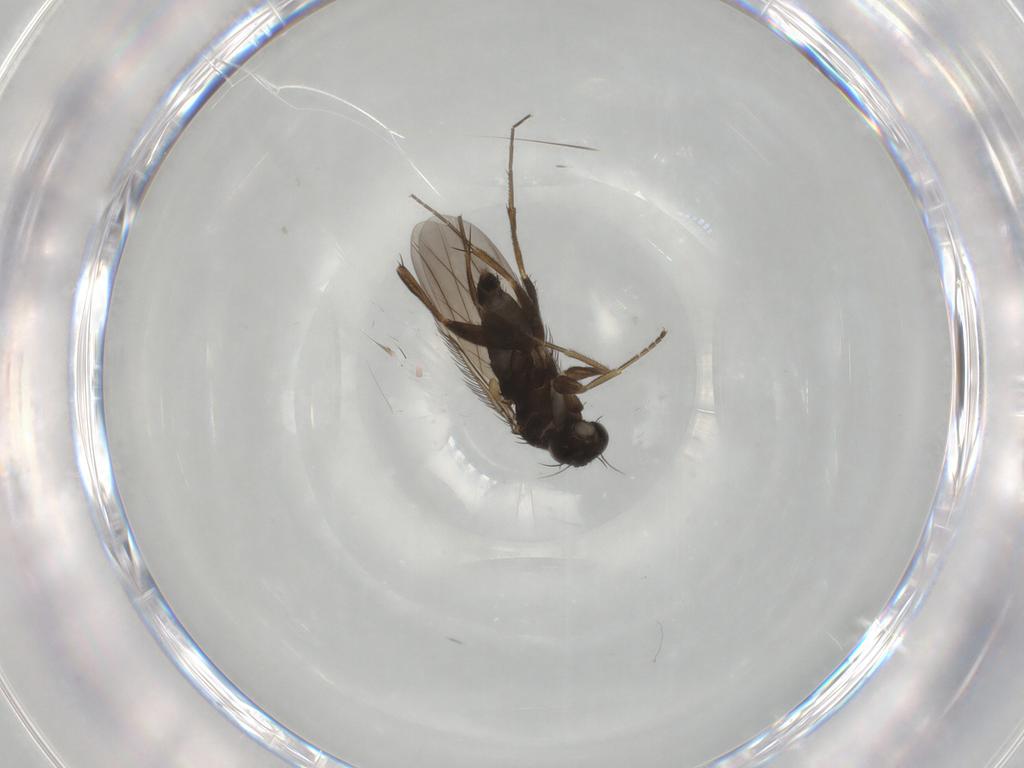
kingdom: Animalia
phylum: Arthropoda
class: Insecta
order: Diptera
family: Phoridae
